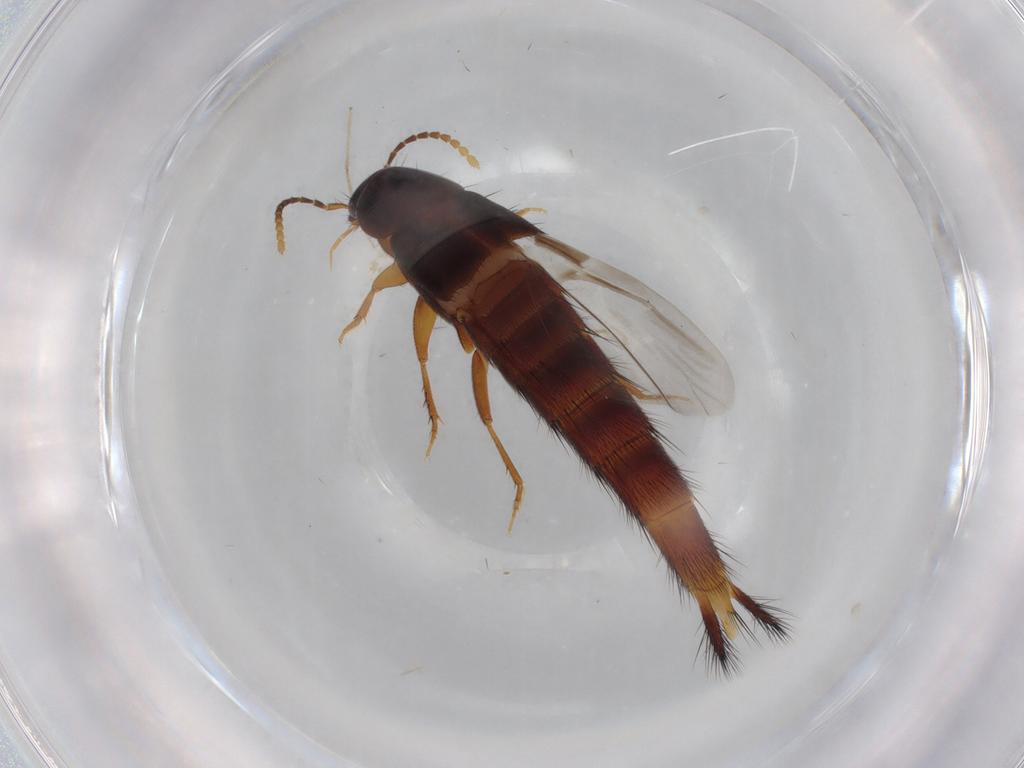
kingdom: Animalia
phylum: Arthropoda
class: Insecta
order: Coleoptera
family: Staphylinidae
